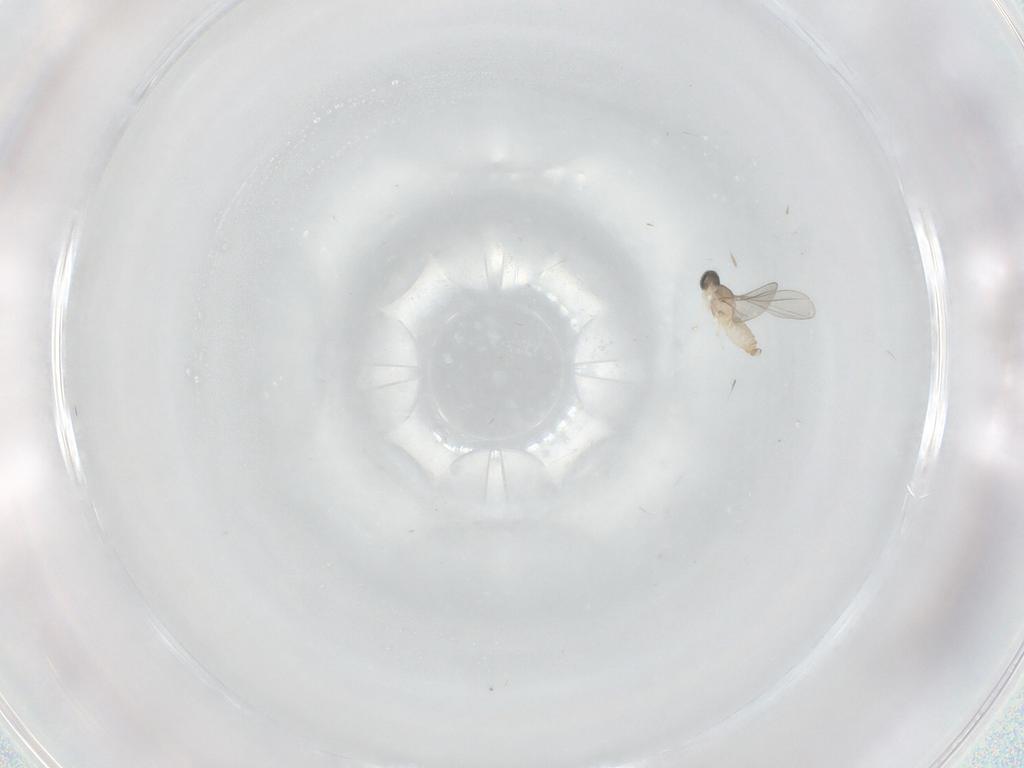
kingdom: Animalia
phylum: Arthropoda
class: Insecta
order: Diptera
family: Cecidomyiidae
